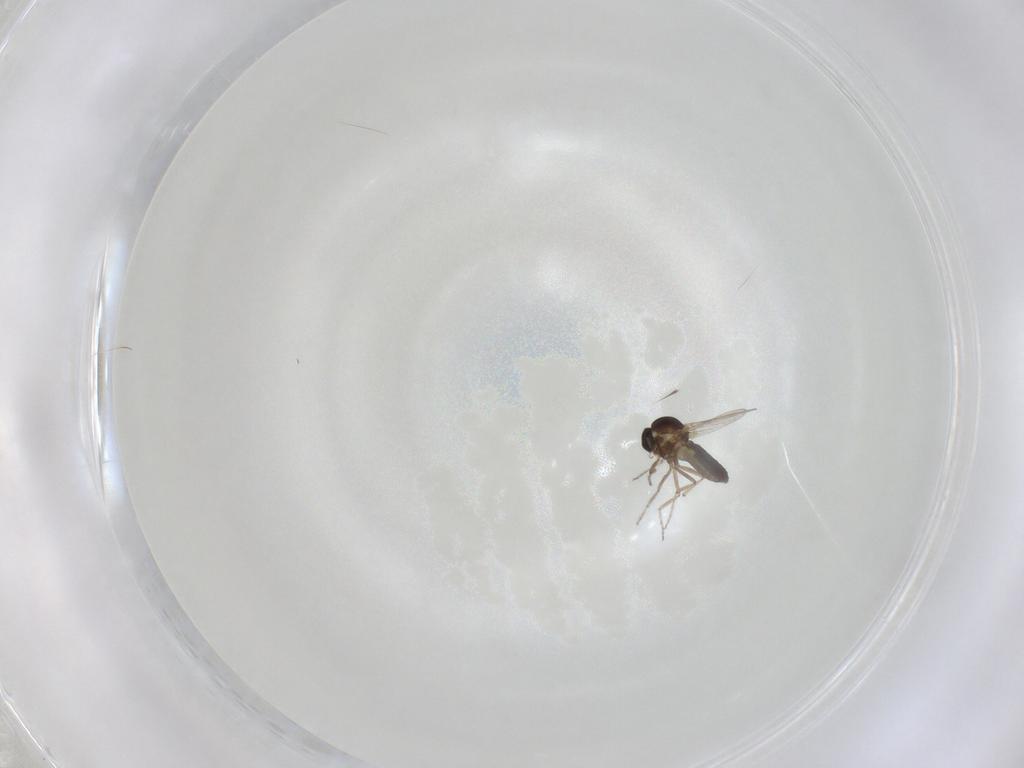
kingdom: Animalia
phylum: Arthropoda
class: Insecta
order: Diptera
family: Ceratopogonidae
